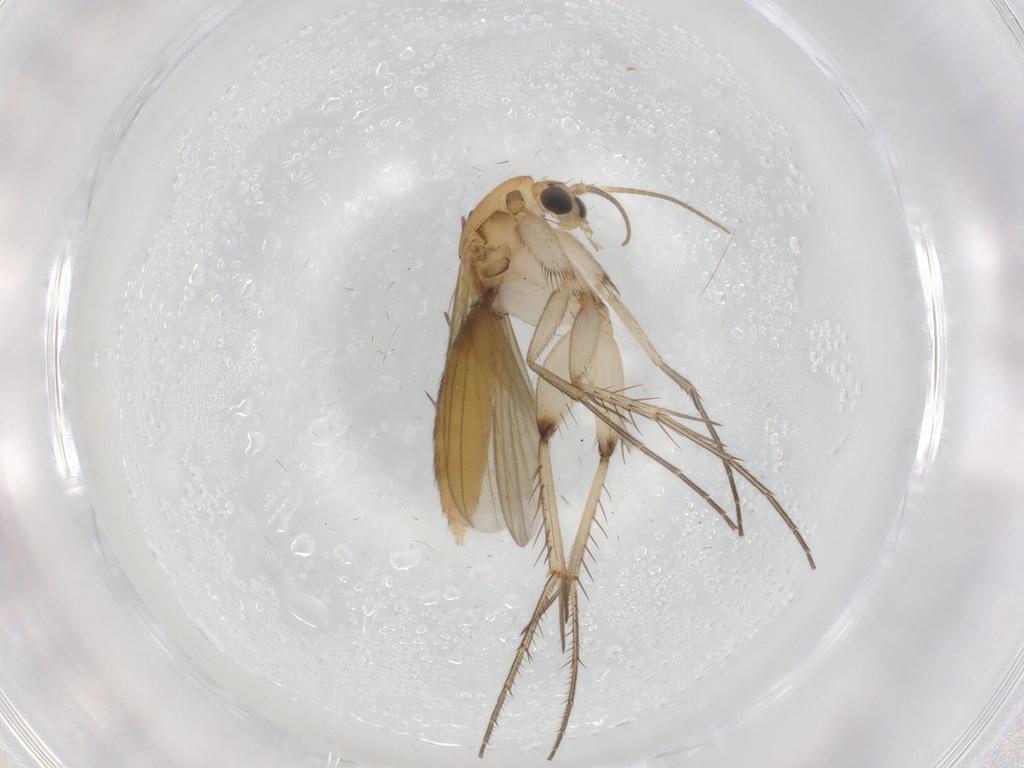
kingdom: Animalia
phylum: Arthropoda
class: Insecta
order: Diptera
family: Mycetophilidae
